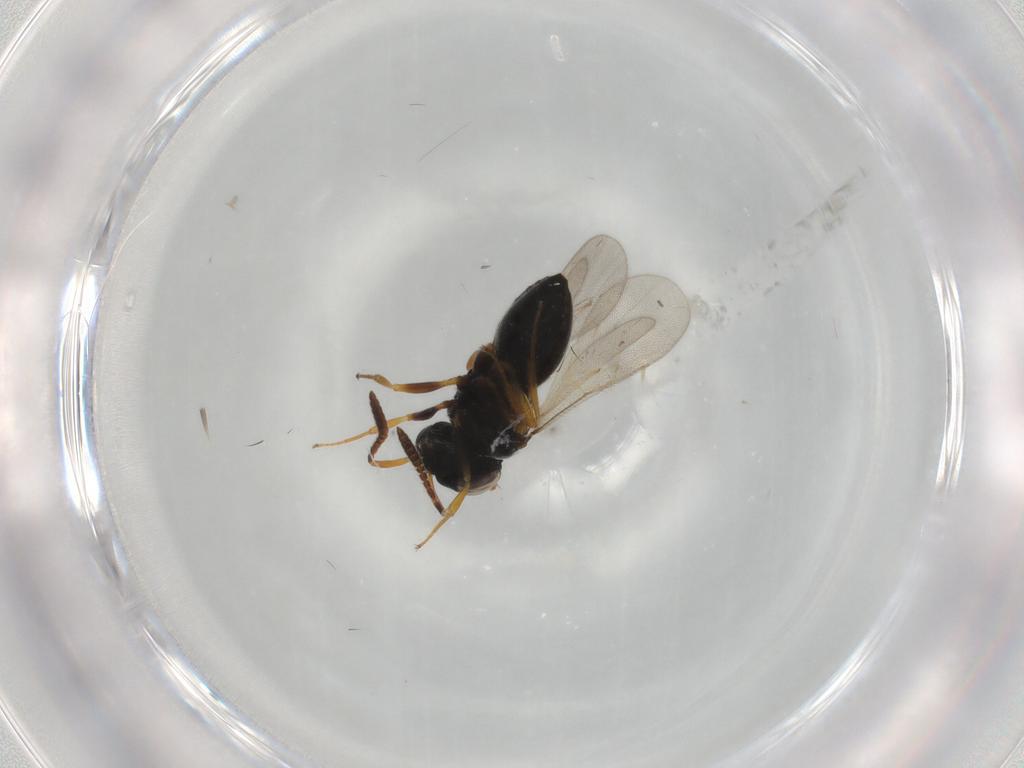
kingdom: Animalia
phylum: Arthropoda
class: Insecta
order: Hymenoptera
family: Scelionidae
